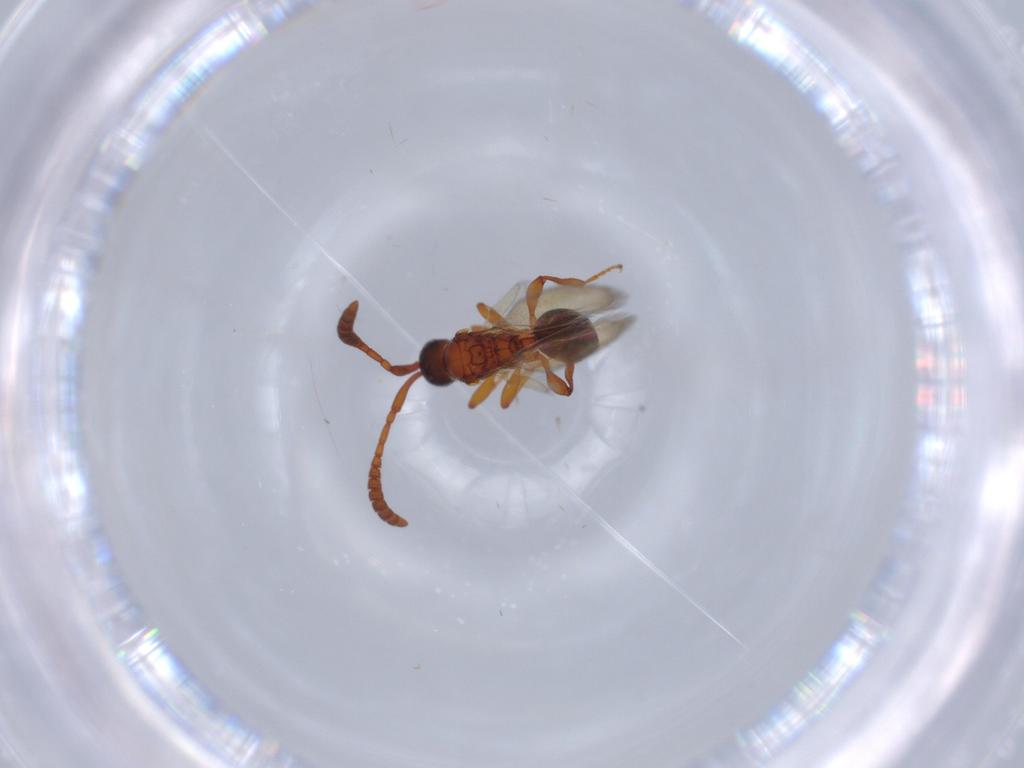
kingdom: Animalia
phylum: Arthropoda
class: Insecta
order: Hymenoptera
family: Diapriidae
